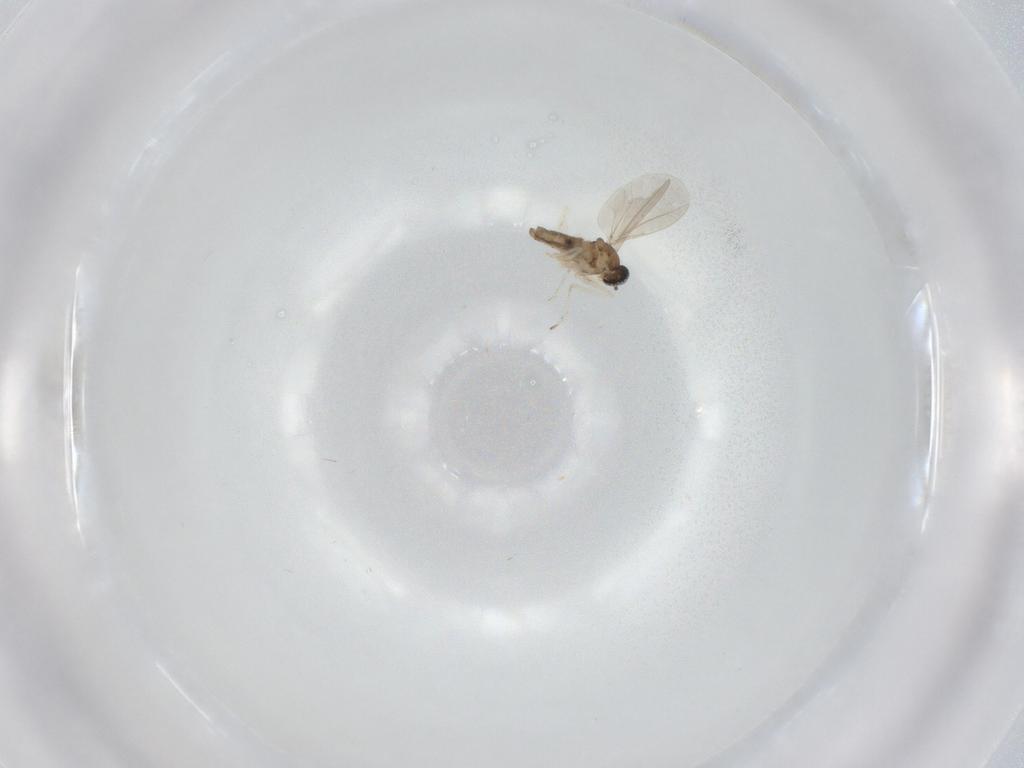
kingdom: Animalia
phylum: Arthropoda
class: Insecta
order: Diptera
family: Cecidomyiidae
